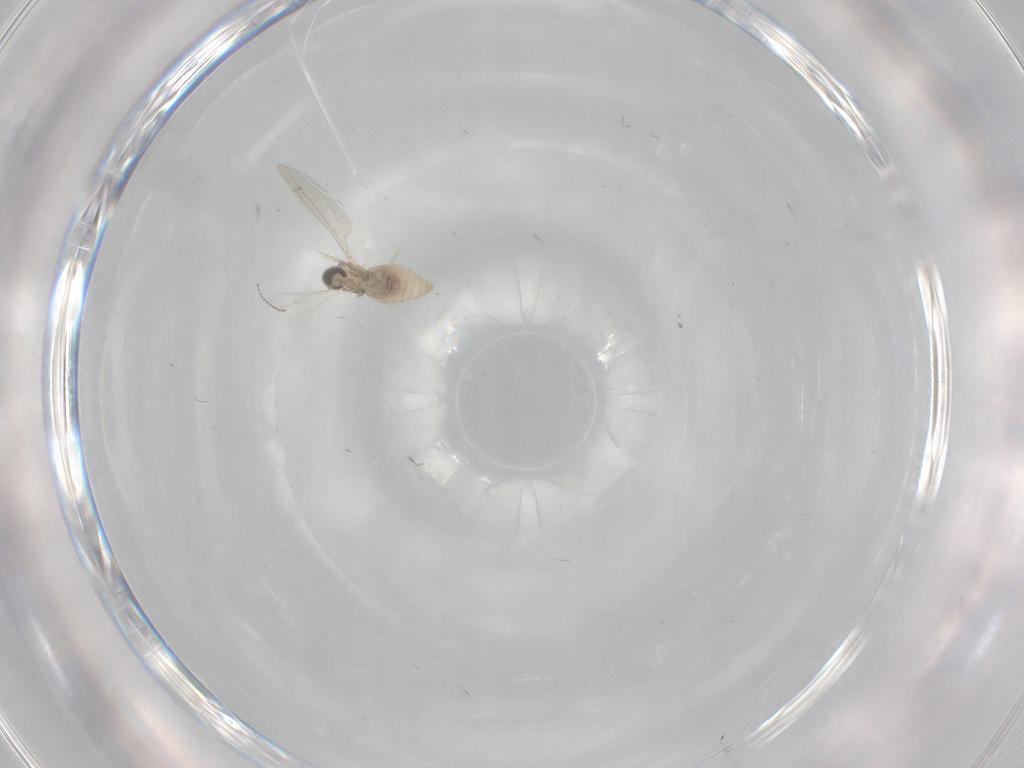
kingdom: Animalia
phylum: Arthropoda
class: Insecta
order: Diptera
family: Cecidomyiidae
